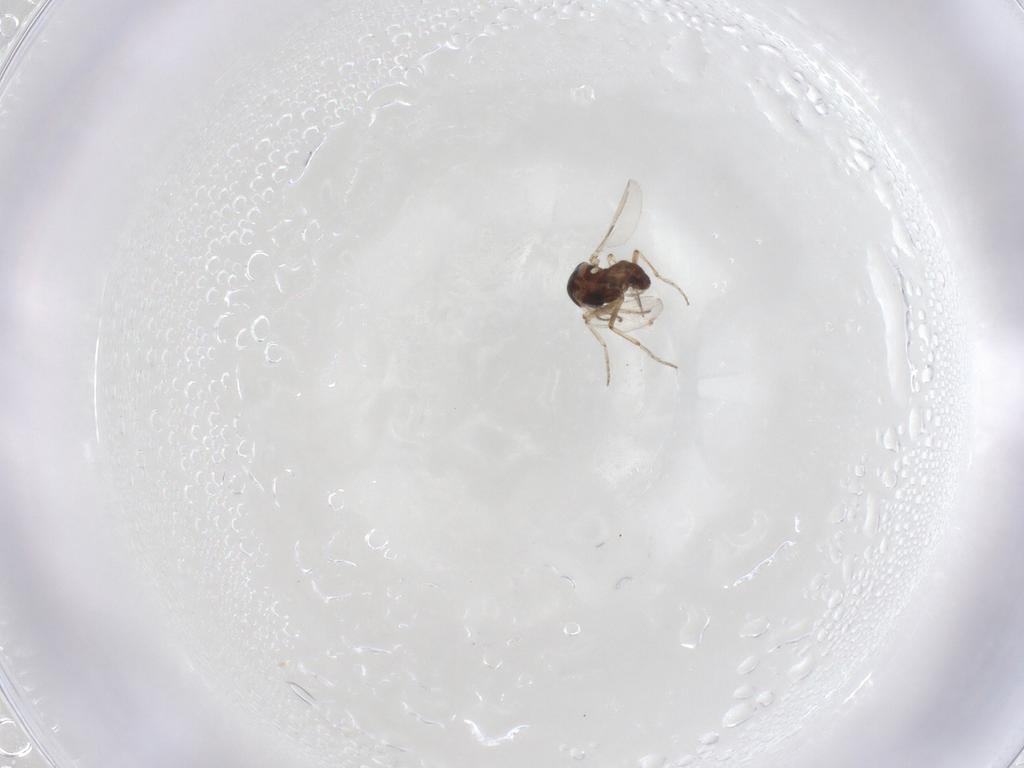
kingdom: Animalia
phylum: Arthropoda
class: Insecta
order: Diptera
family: Ceratopogonidae
